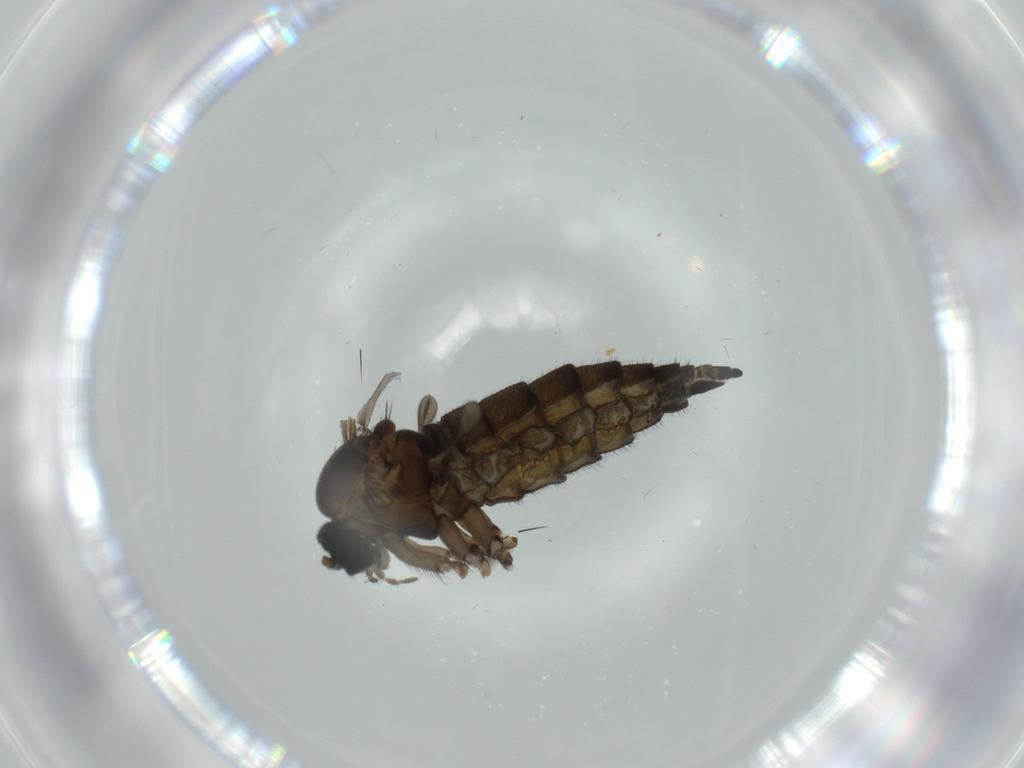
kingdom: Animalia
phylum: Arthropoda
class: Insecta
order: Diptera
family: Sciaridae
